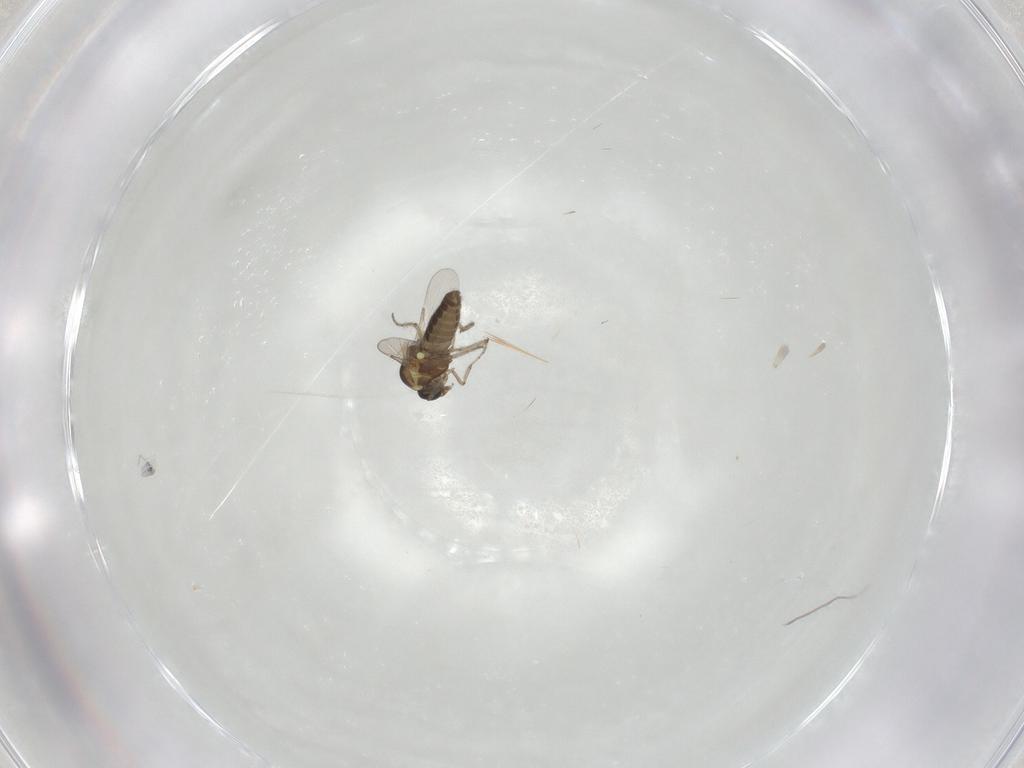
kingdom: Animalia
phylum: Arthropoda
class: Insecta
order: Diptera
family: Ceratopogonidae
